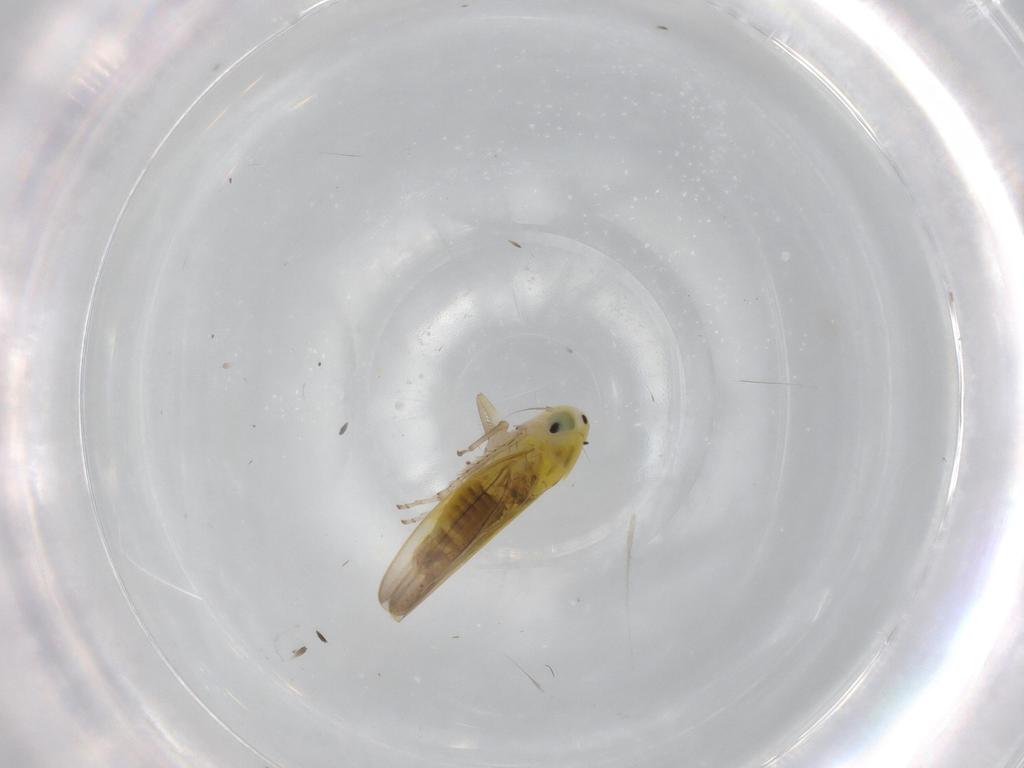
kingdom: Animalia
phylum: Arthropoda
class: Insecta
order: Hemiptera
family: Cicadellidae
